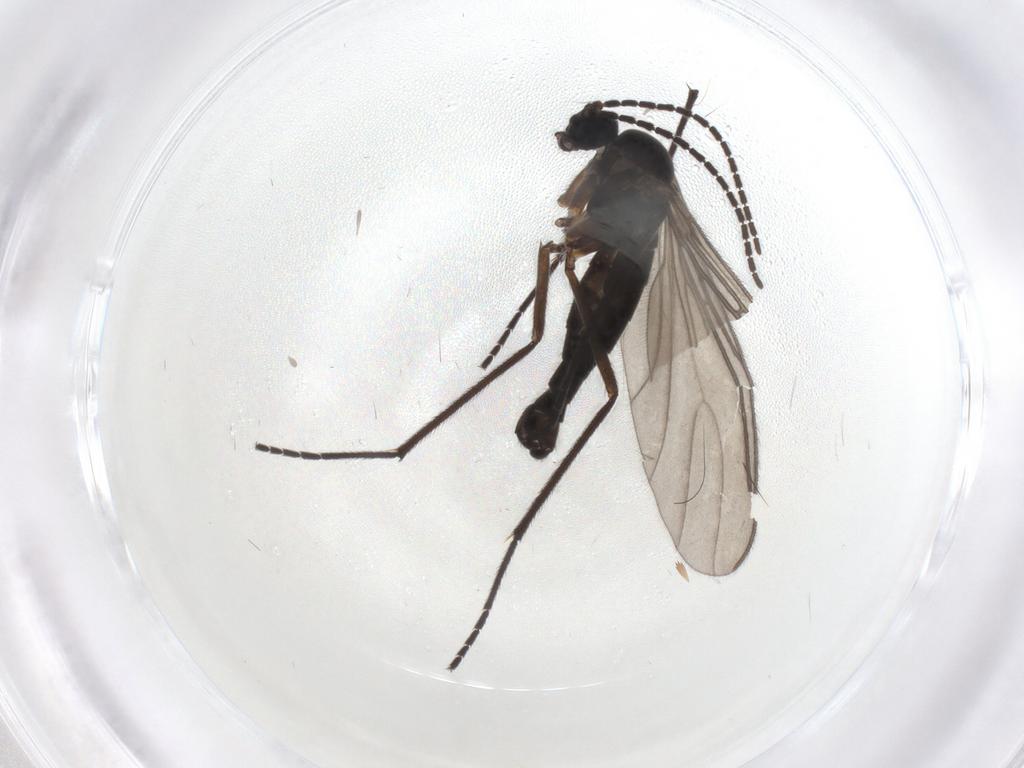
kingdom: Animalia
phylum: Arthropoda
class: Insecta
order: Diptera
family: Sciaridae
